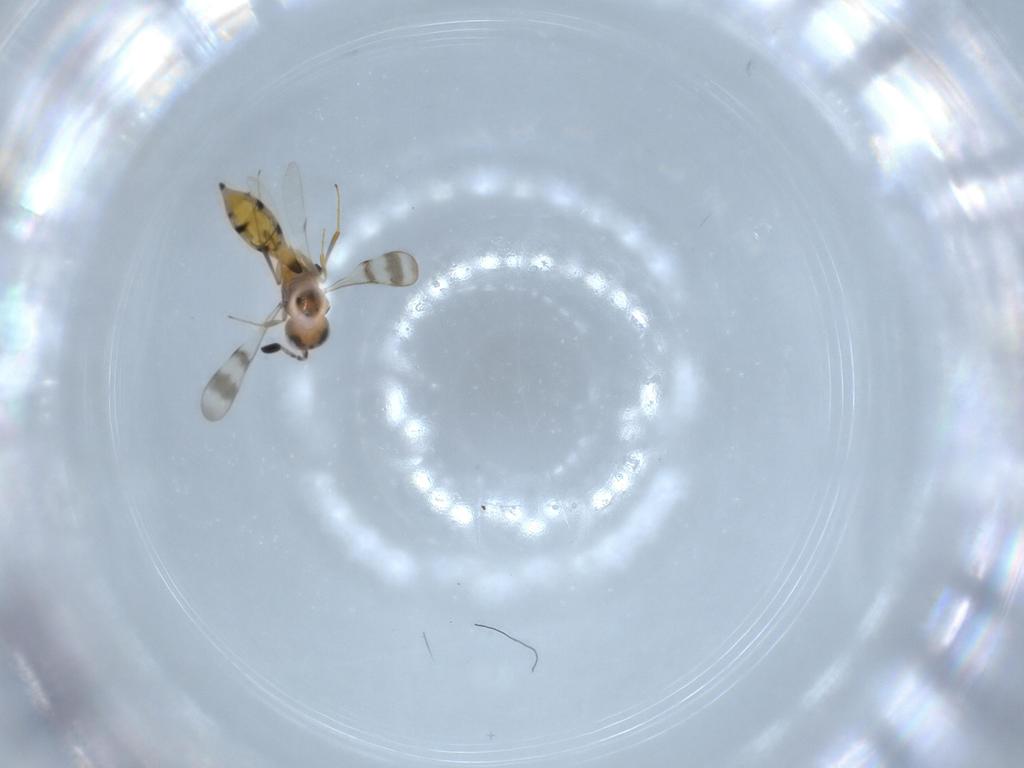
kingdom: Animalia
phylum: Arthropoda
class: Insecta
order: Hymenoptera
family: Scelionidae
